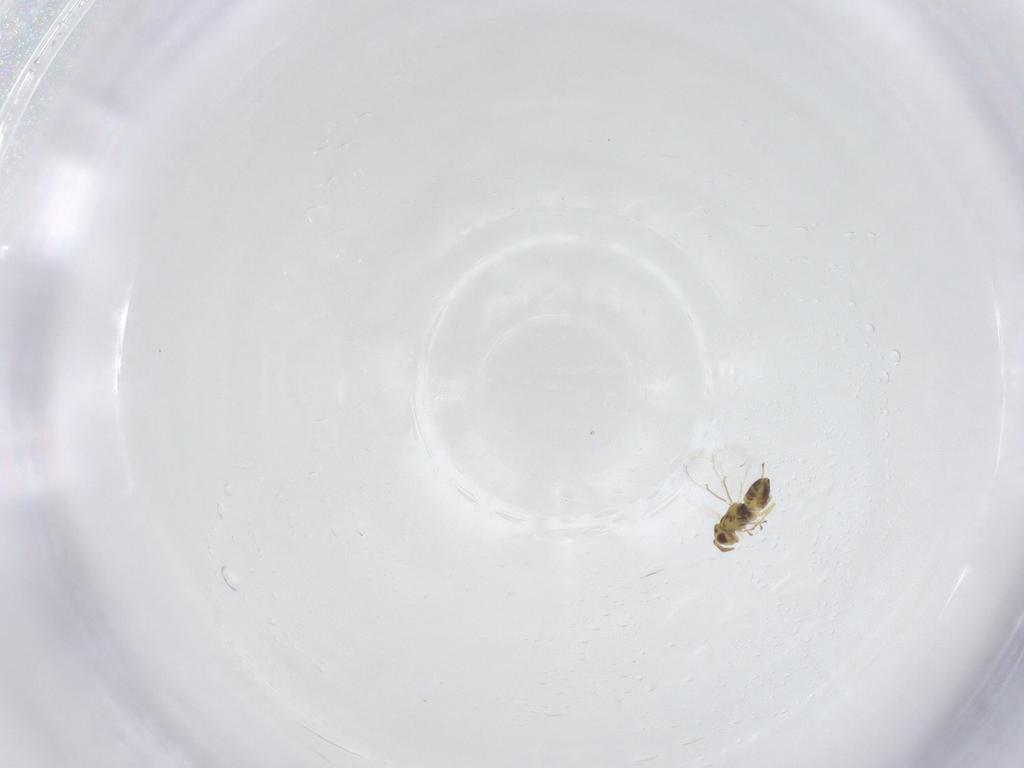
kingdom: Animalia
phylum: Arthropoda
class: Insecta
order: Hymenoptera
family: Eulophidae
